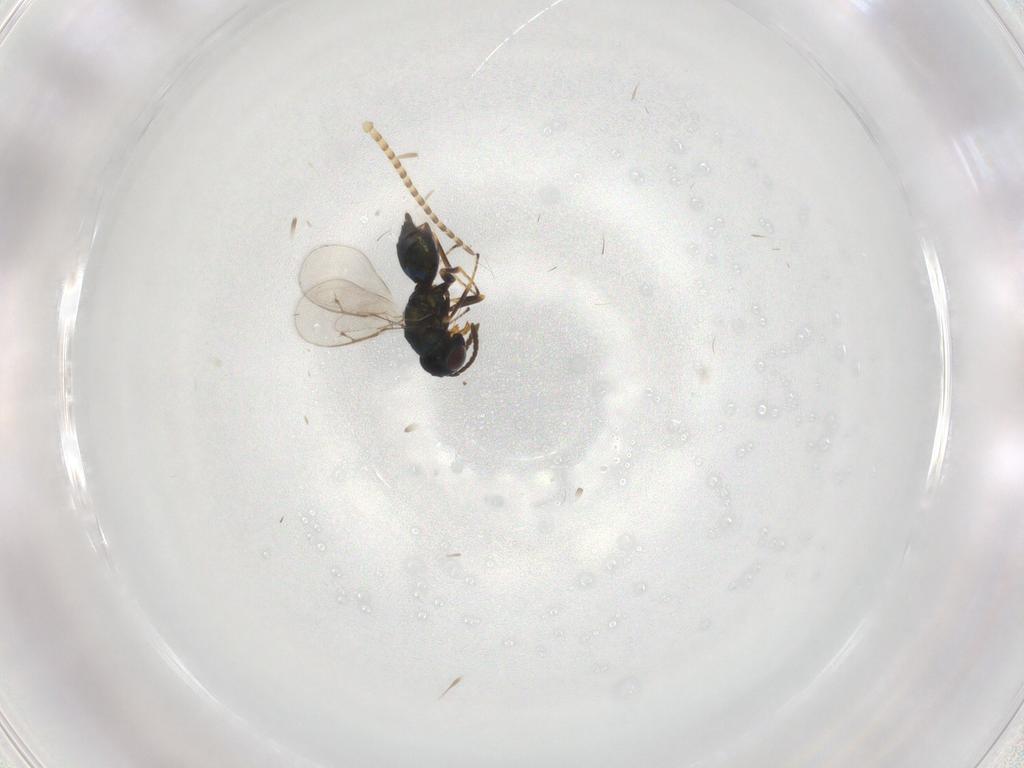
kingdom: Animalia
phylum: Arthropoda
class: Insecta
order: Hymenoptera
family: Pteromalidae
